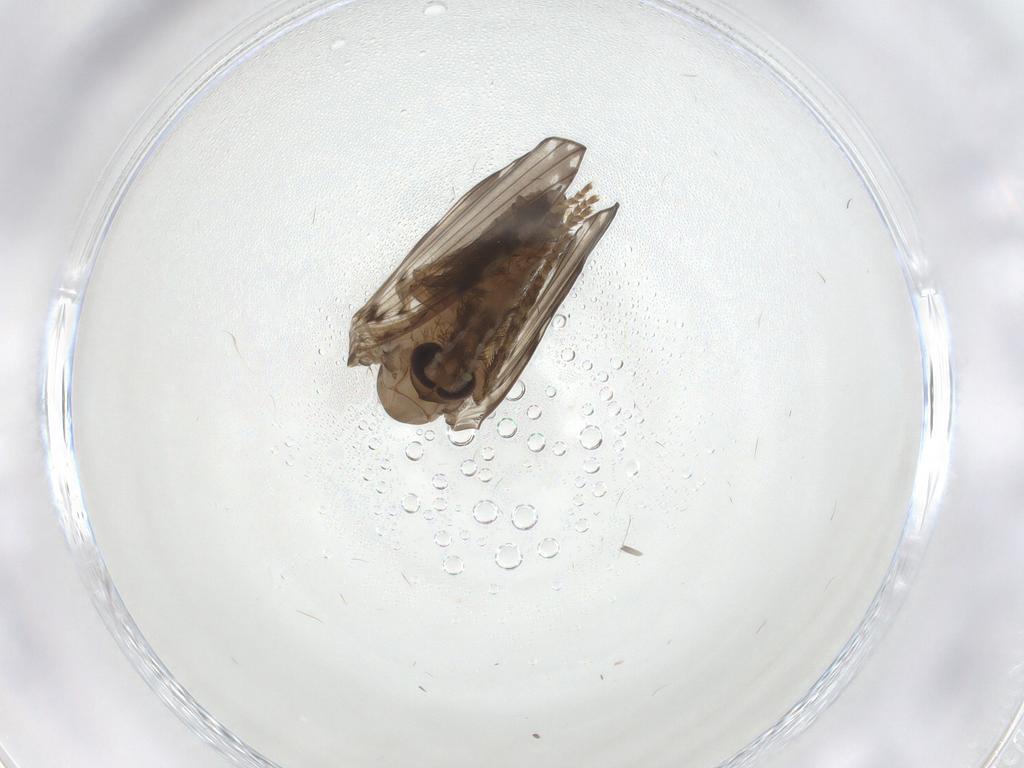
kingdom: Animalia
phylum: Arthropoda
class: Insecta
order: Diptera
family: Psychodidae
